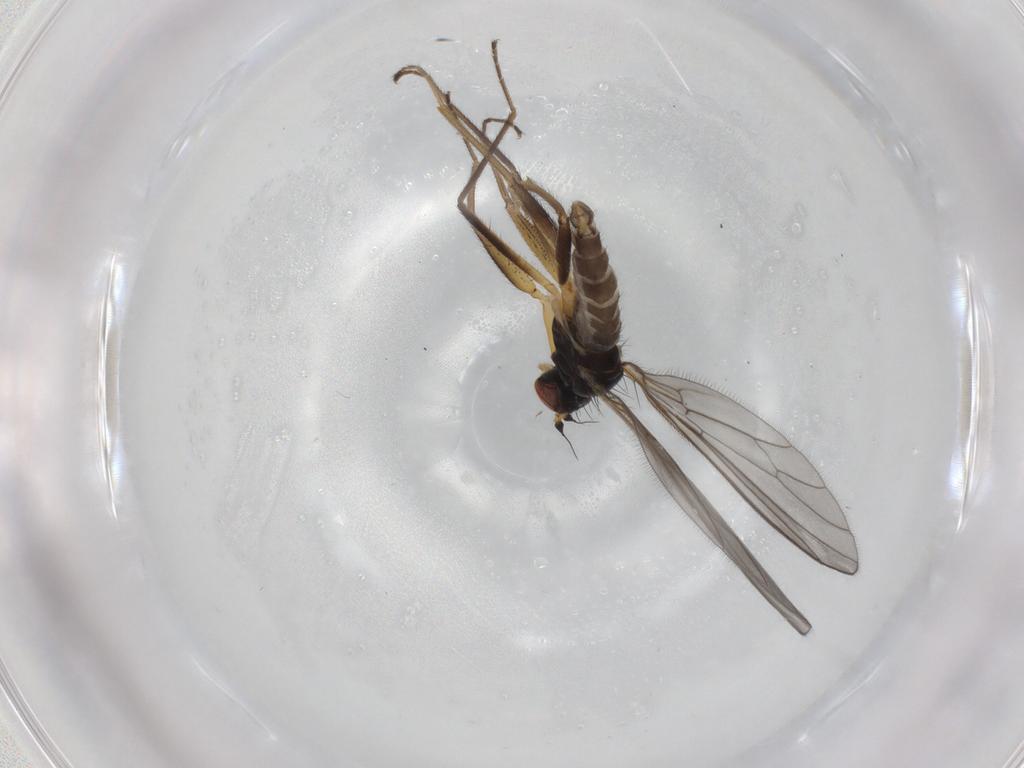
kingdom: Animalia
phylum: Arthropoda
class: Insecta
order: Diptera
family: Empididae
